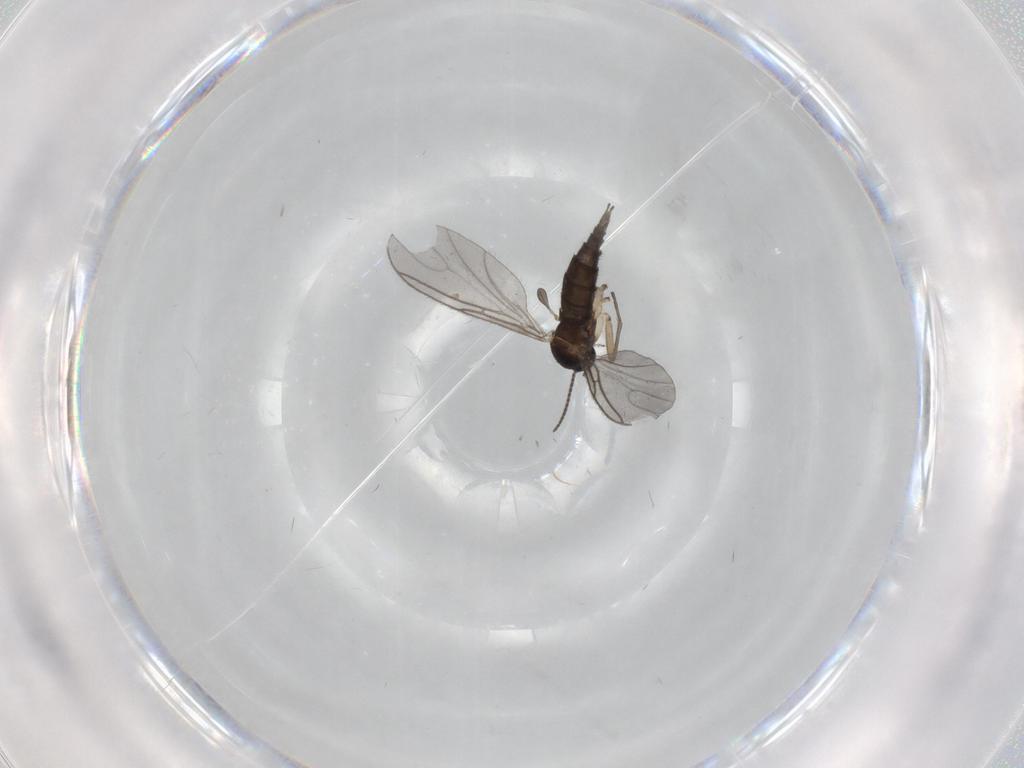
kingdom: Animalia
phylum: Arthropoda
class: Insecta
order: Diptera
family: Sciaridae
